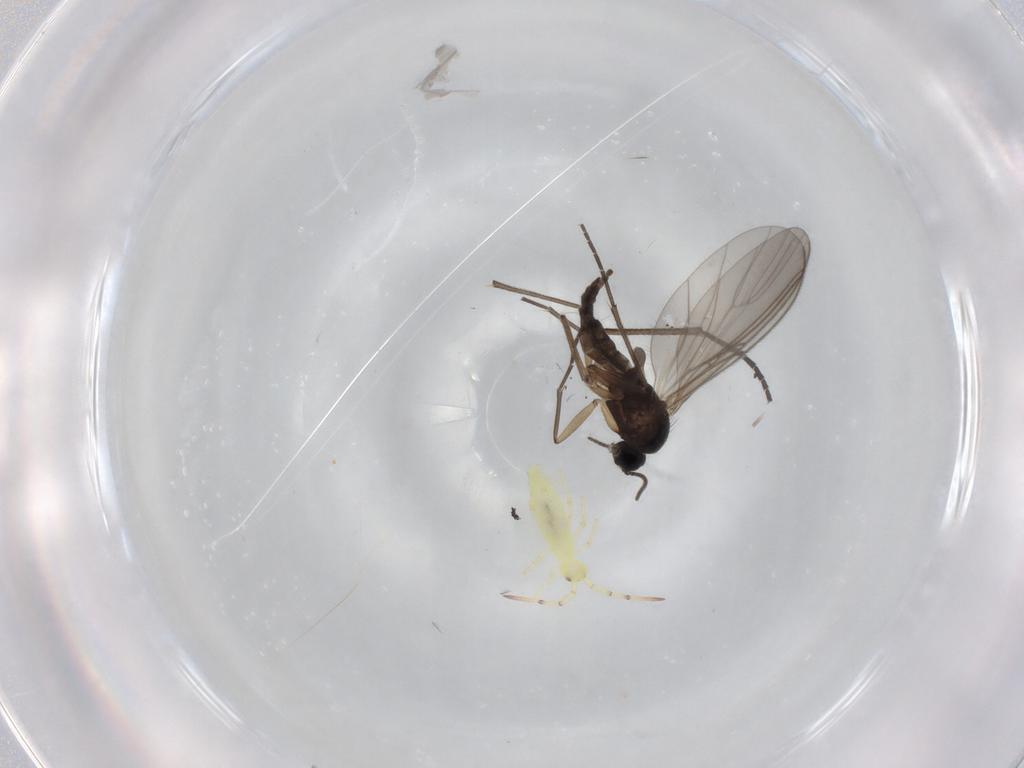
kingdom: Animalia
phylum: Arthropoda
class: Insecta
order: Diptera
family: Sciaridae
